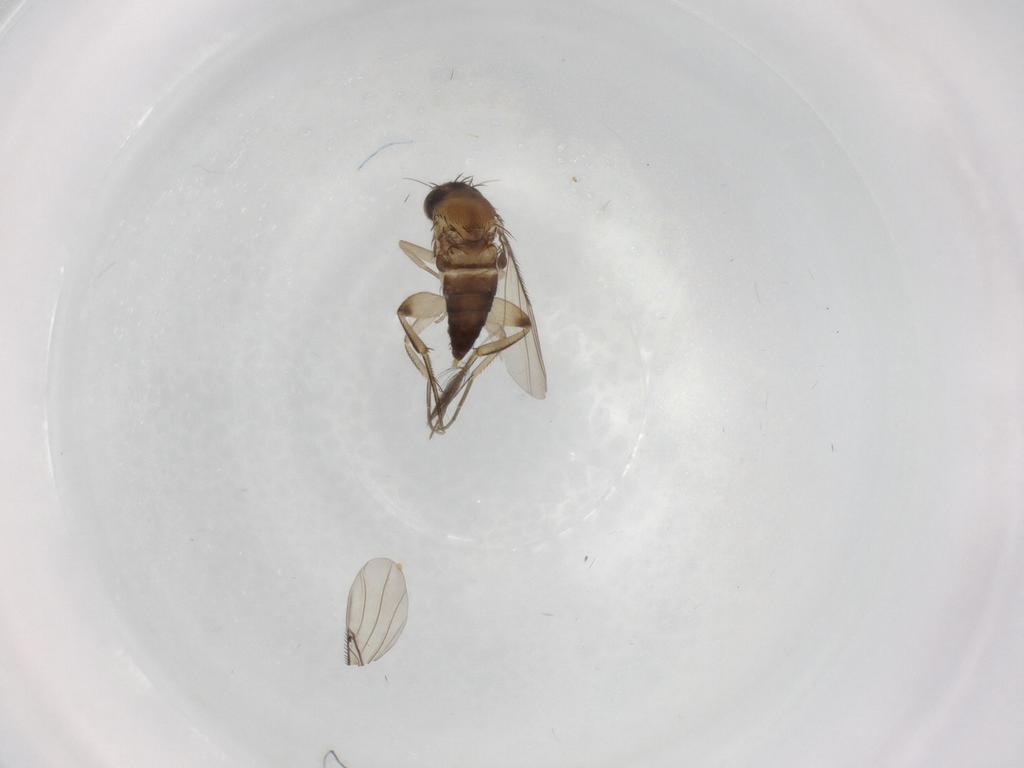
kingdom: Animalia
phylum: Arthropoda
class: Insecta
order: Diptera
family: Phoridae
